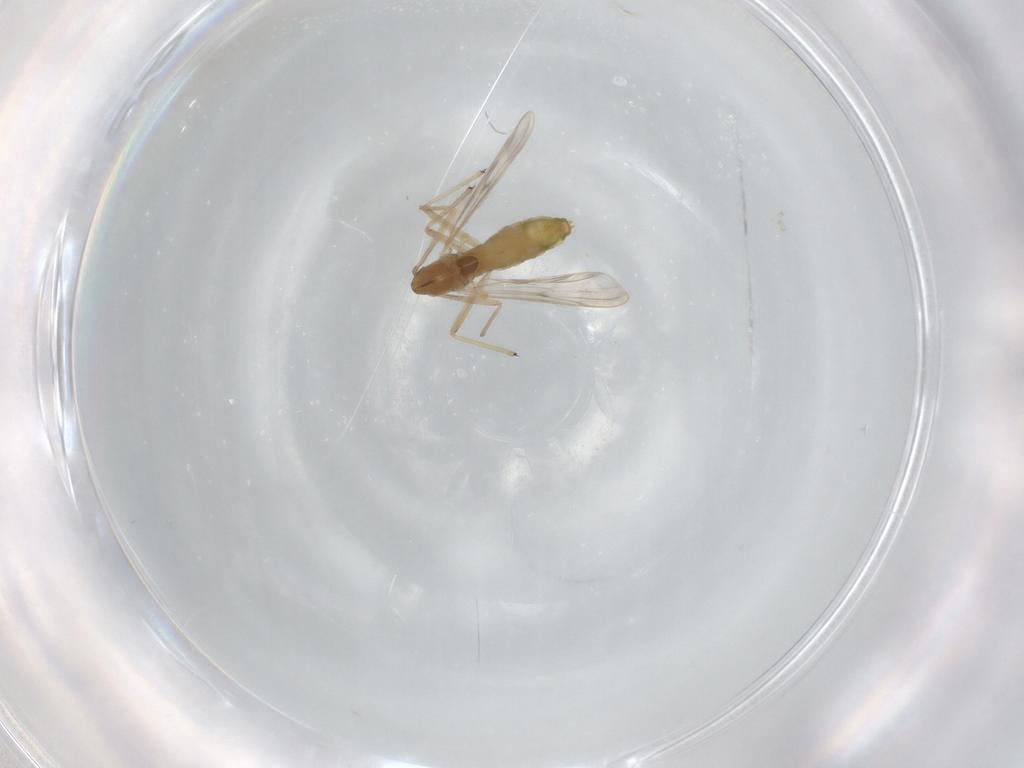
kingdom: Animalia
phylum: Arthropoda
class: Insecta
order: Diptera
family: Chironomidae
